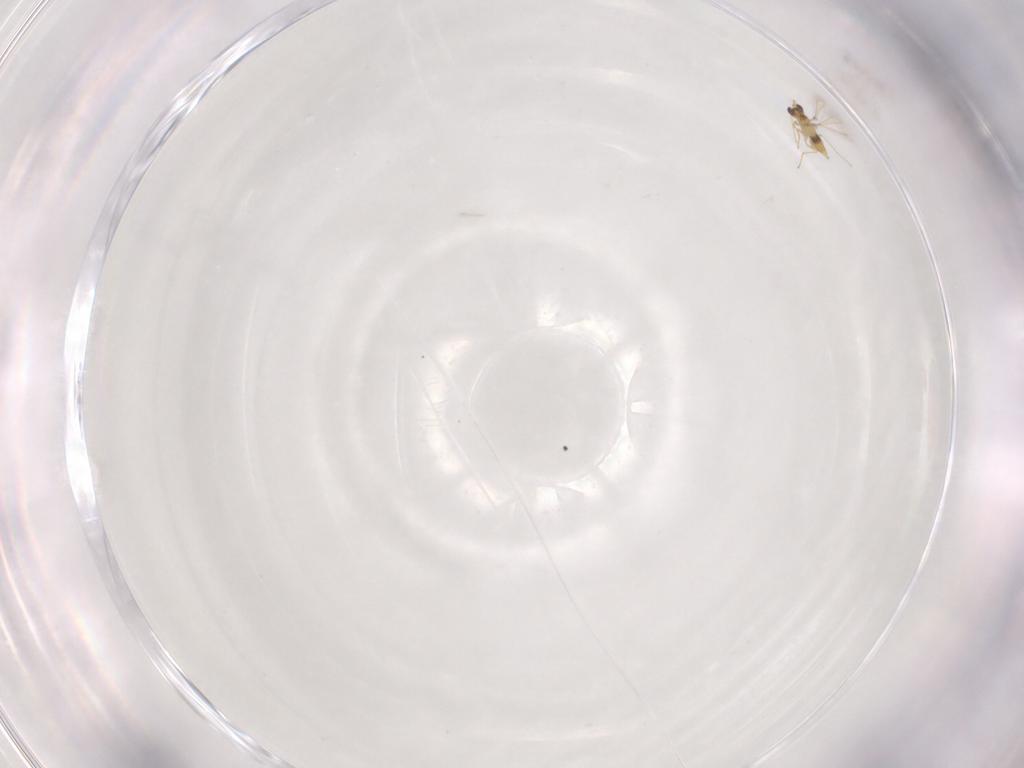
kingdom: Animalia
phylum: Arthropoda
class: Insecta
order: Hymenoptera
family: Mymaridae
